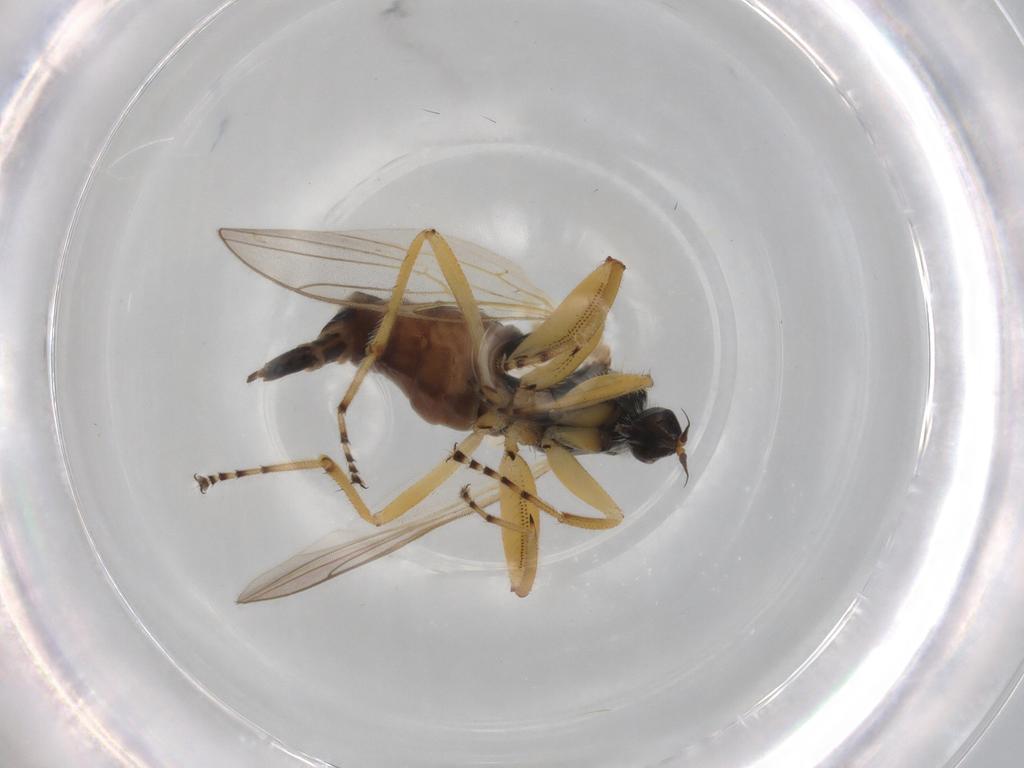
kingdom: Animalia
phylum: Arthropoda
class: Insecta
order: Diptera
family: Hybotidae
